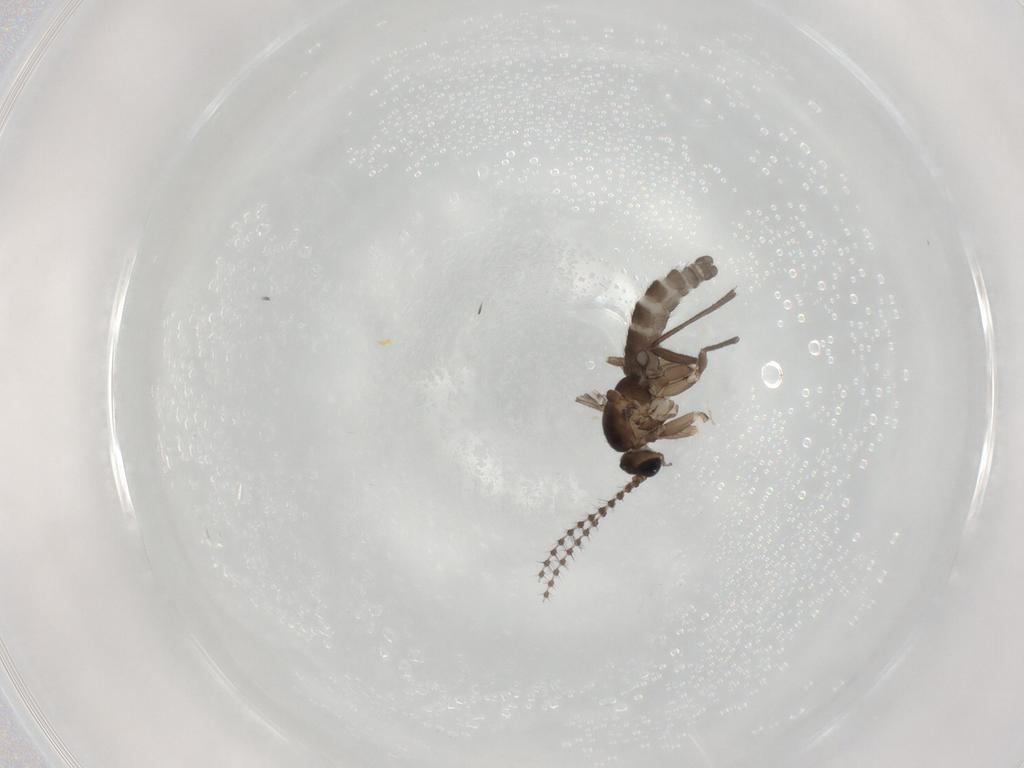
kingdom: Animalia
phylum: Arthropoda
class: Insecta
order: Diptera
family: Sciaridae
